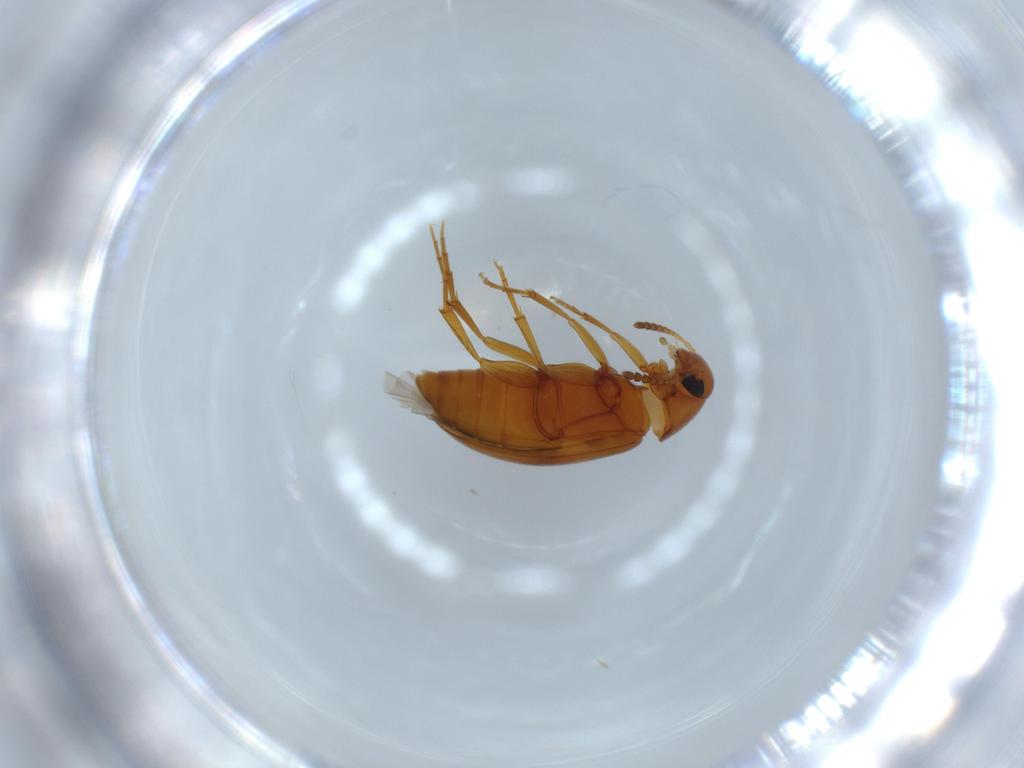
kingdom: Animalia
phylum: Arthropoda
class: Insecta
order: Coleoptera
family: Scraptiidae
